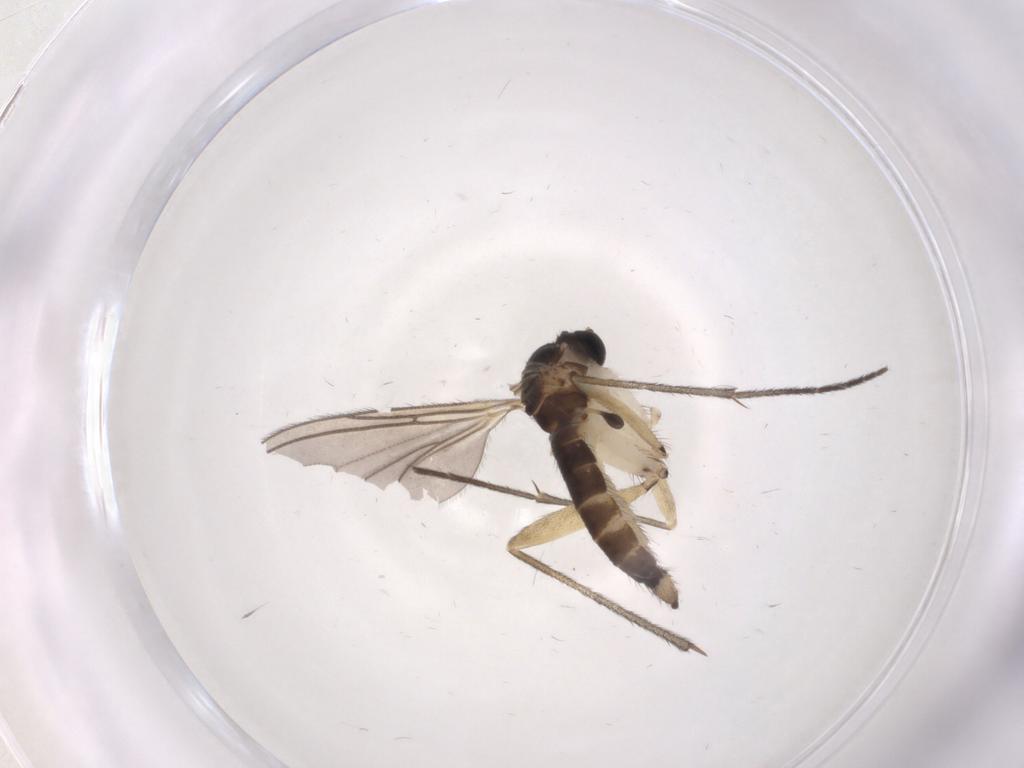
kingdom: Animalia
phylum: Arthropoda
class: Insecta
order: Diptera
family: Sciaridae
